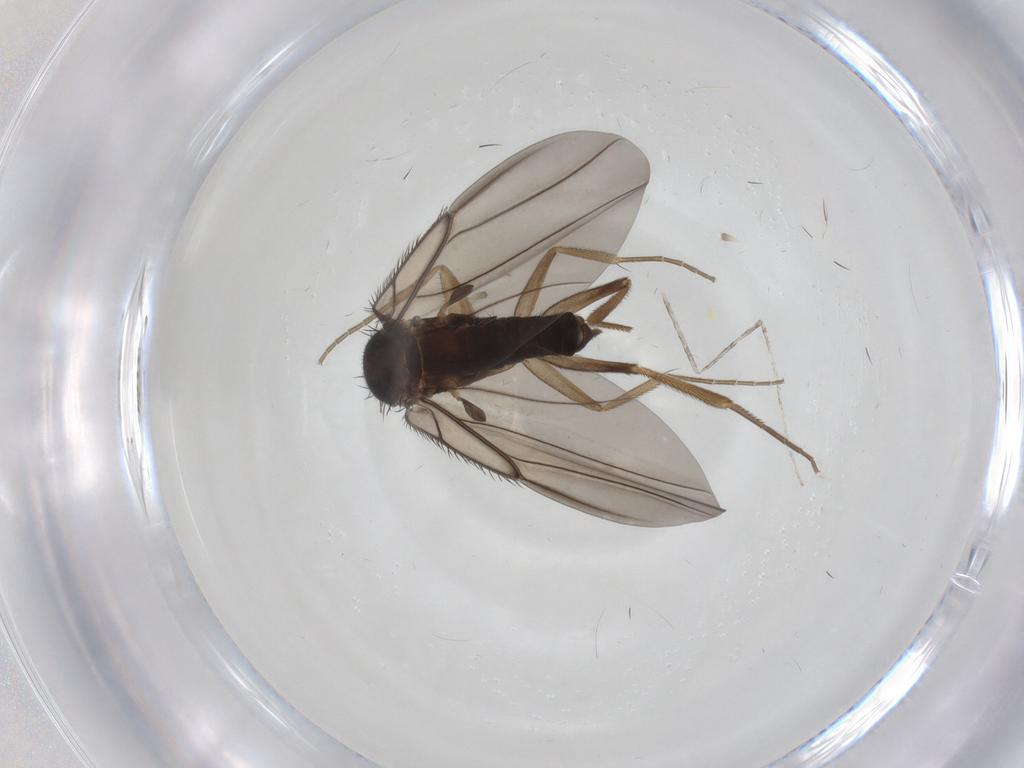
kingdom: Animalia
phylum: Arthropoda
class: Insecta
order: Diptera
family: Phoridae
